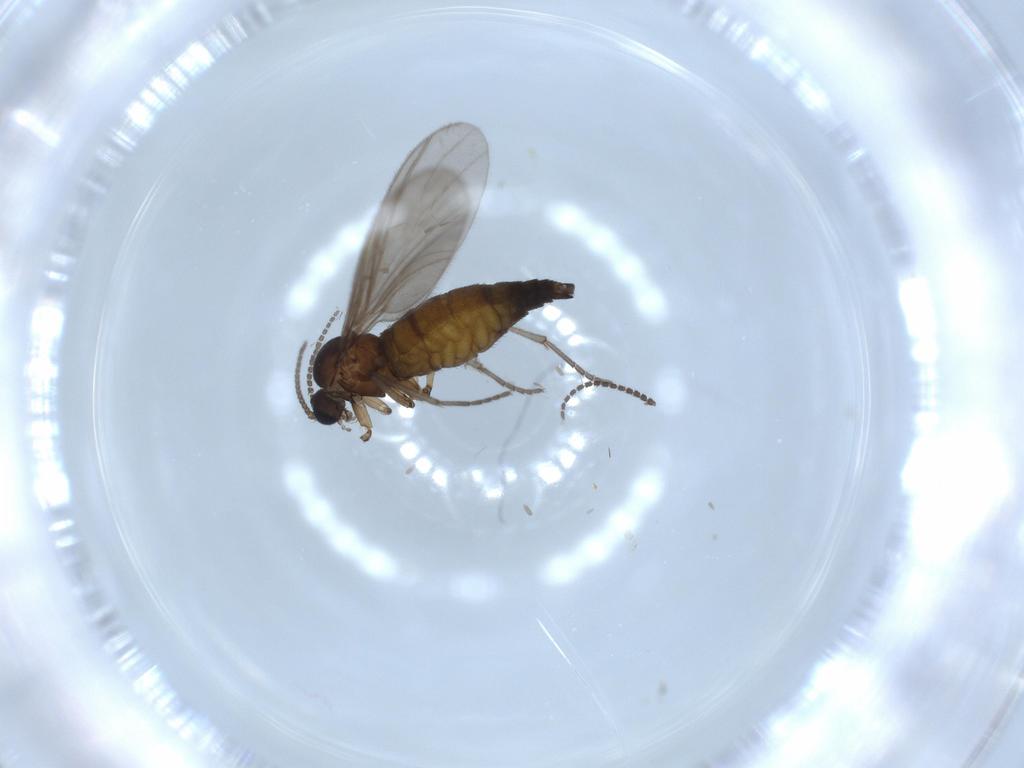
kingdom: Animalia
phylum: Arthropoda
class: Insecta
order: Diptera
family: Sciaridae
